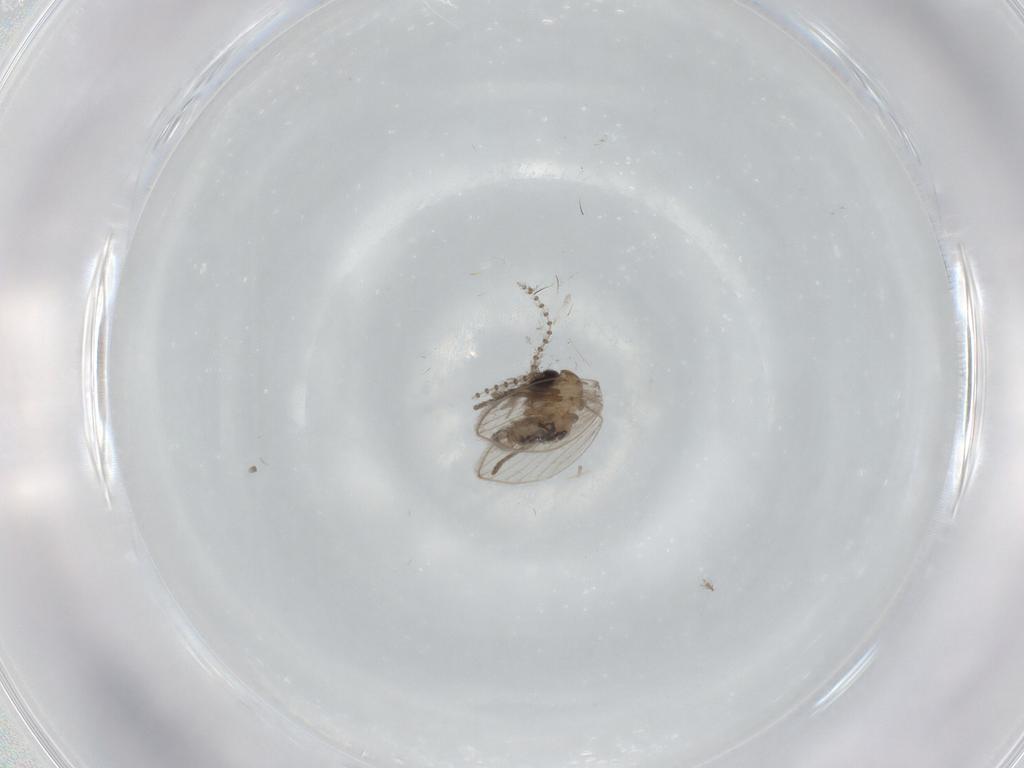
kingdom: Animalia
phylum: Arthropoda
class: Insecta
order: Diptera
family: Psychodidae
